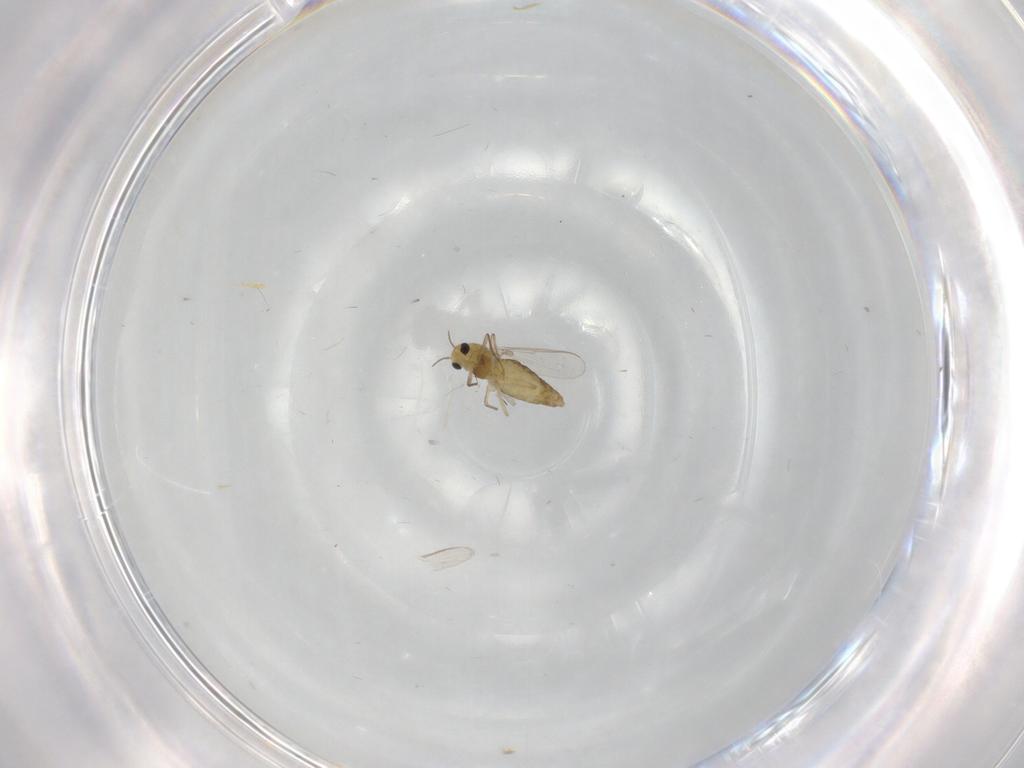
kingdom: Animalia
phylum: Arthropoda
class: Insecta
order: Diptera
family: Chironomidae
